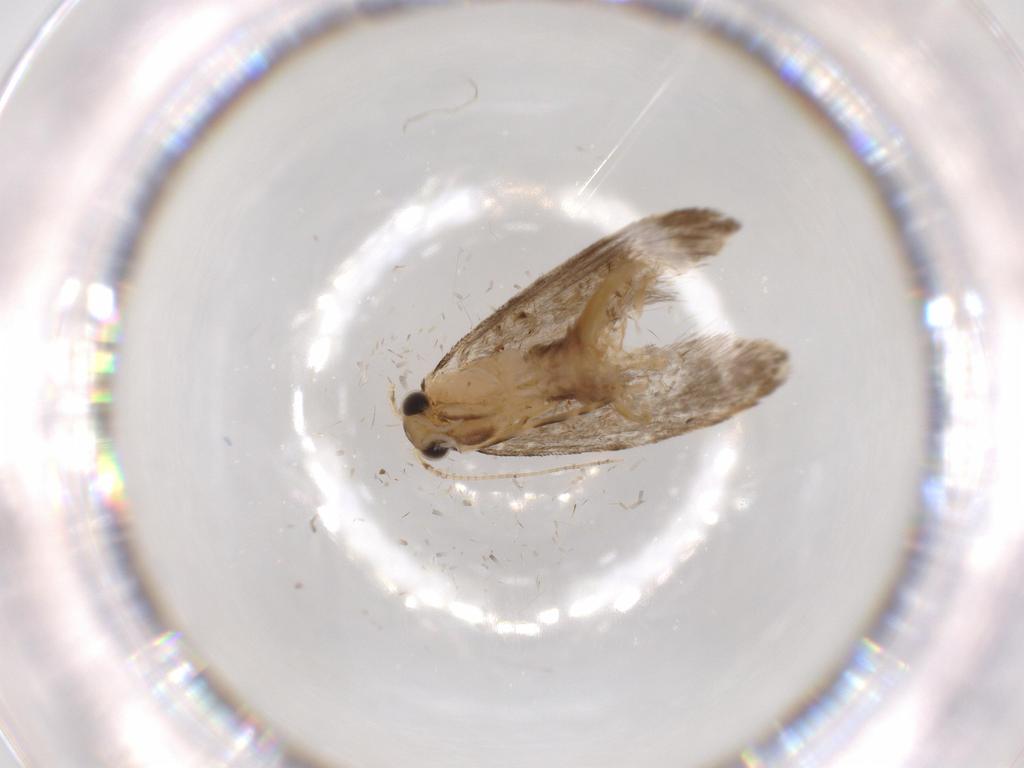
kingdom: Animalia
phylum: Arthropoda
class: Insecta
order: Lepidoptera
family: Tineidae
